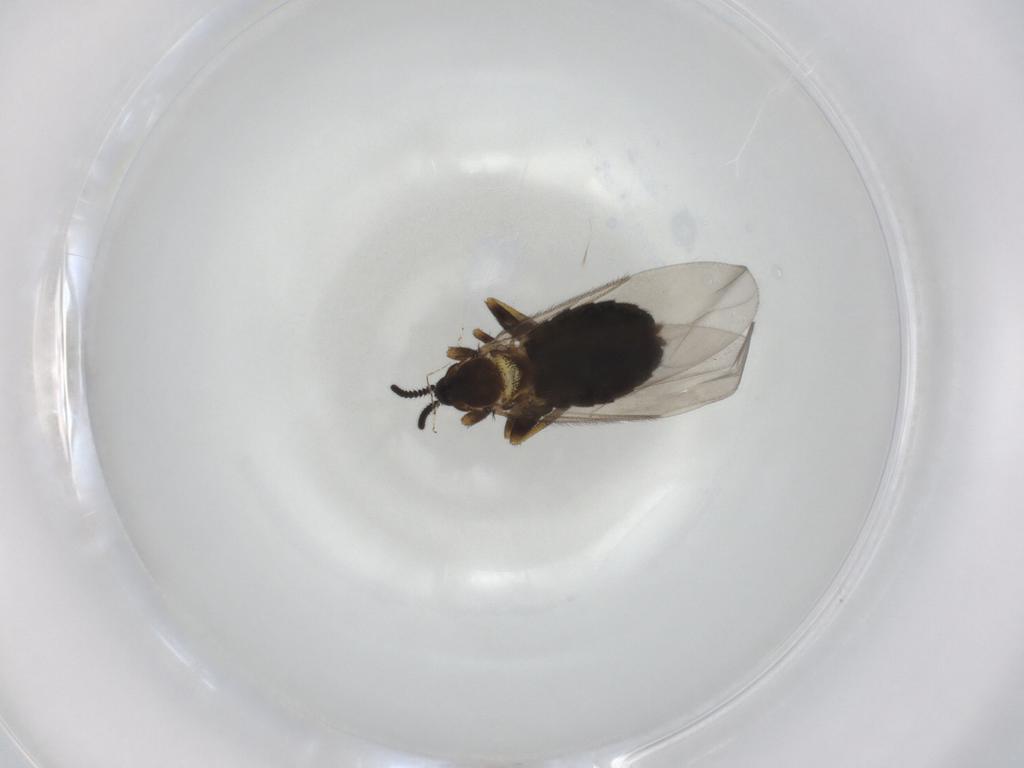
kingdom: Animalia
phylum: Arthropoda
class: Insecta
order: Diptera
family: Scatopsidae
